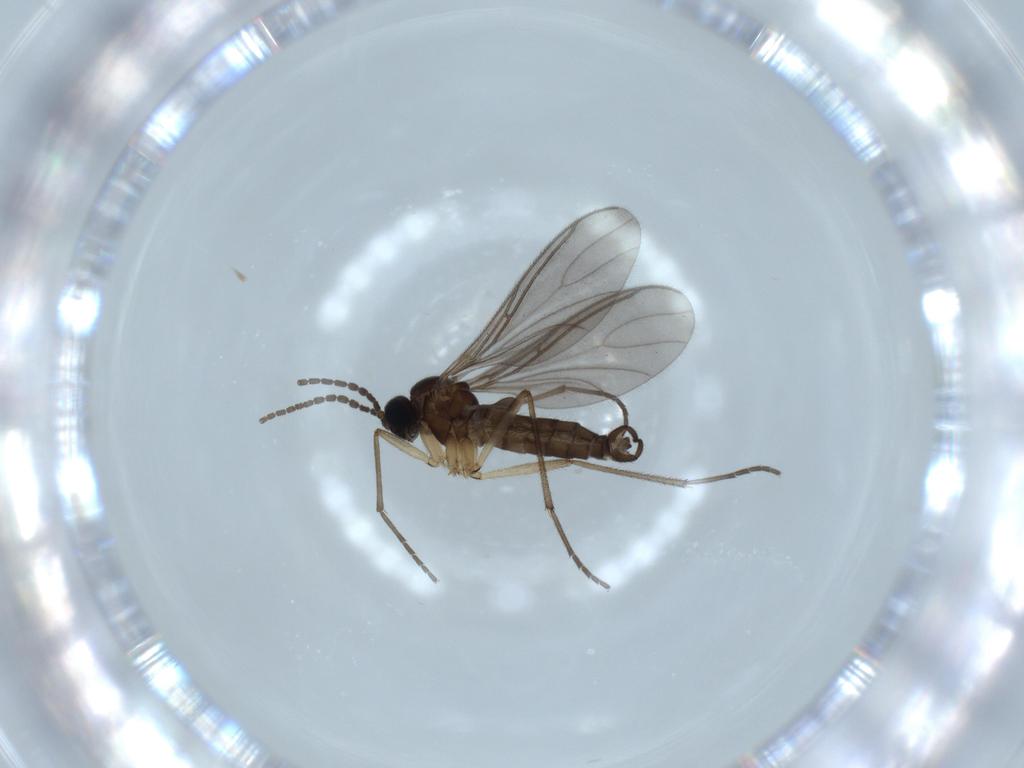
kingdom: Animalia
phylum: Arthropoda
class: Insecta
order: Diptera
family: Sciaridae
